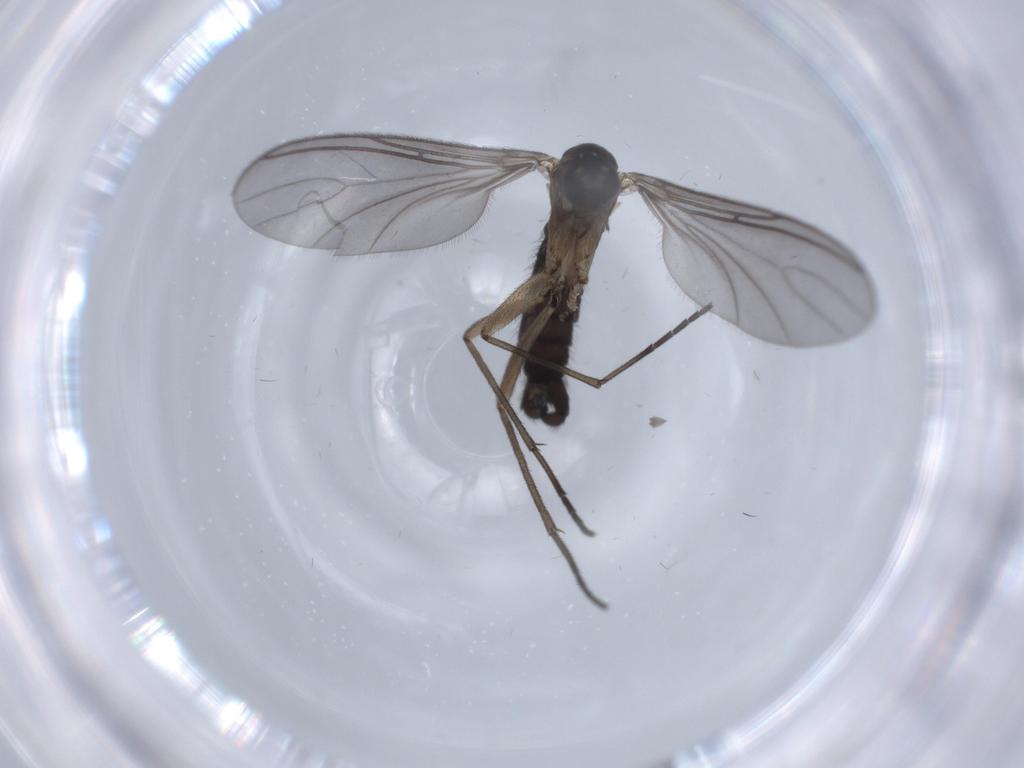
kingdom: Animalia
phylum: Arthropoda
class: Insecta
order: Diptera
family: Sciaridae
